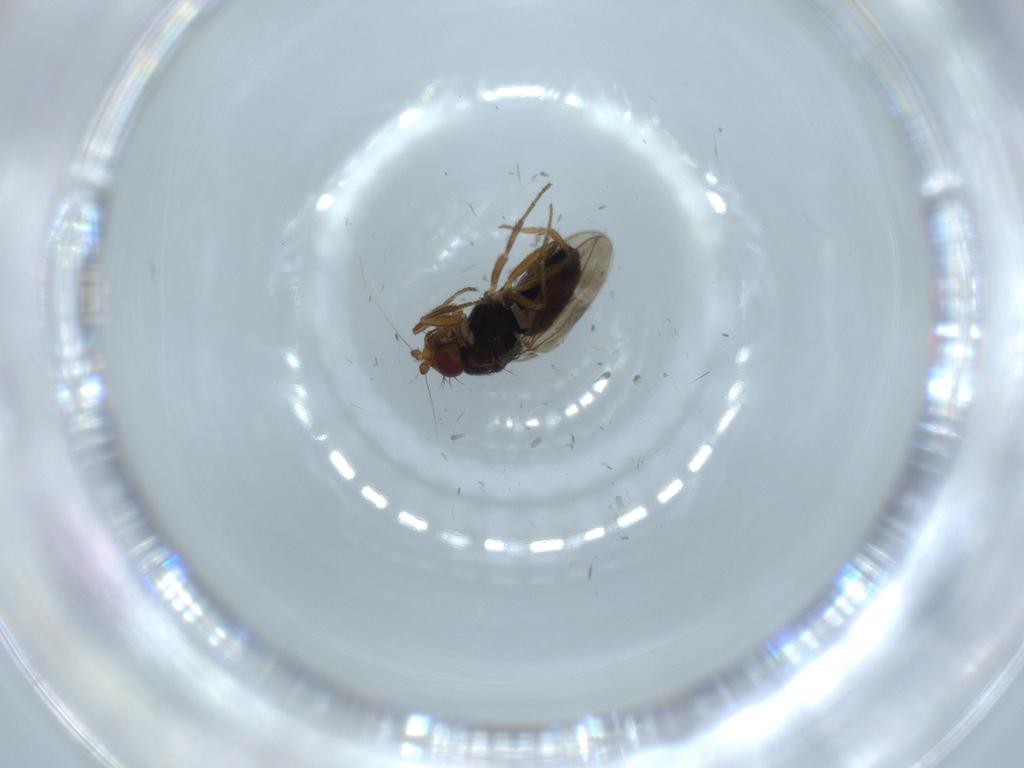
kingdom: Animalia
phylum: Arthropoda
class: Insecta
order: Diptera
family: Sphaeroceridae
